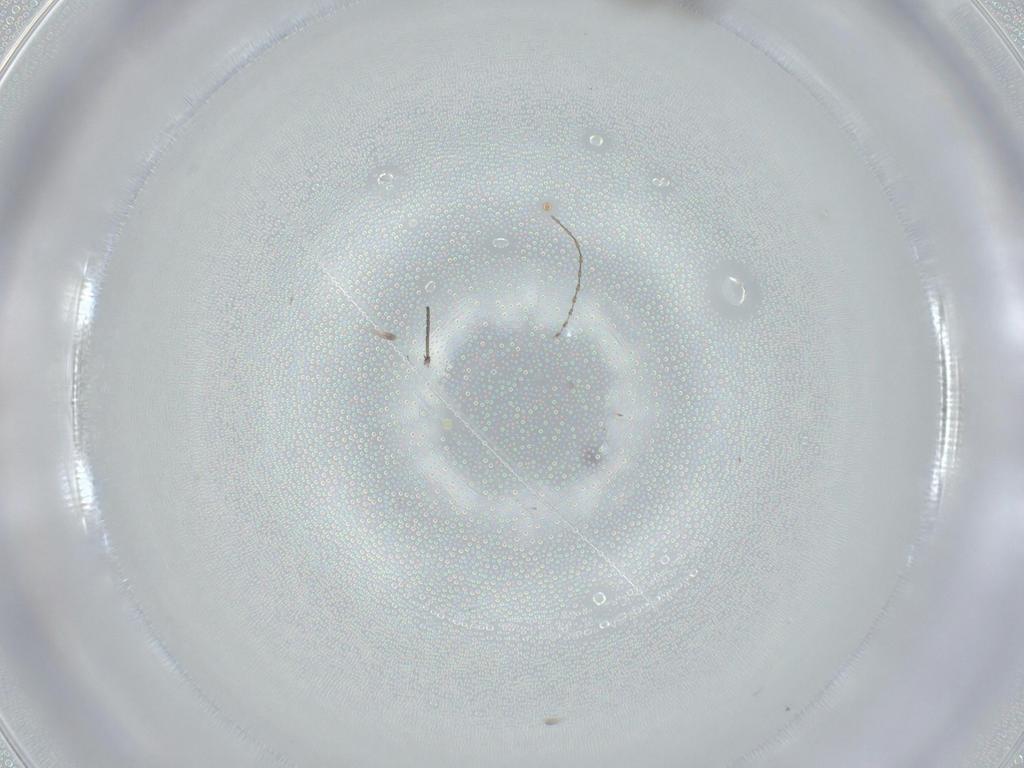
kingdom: Animalia
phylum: Arthropoda
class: Insecta
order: Diptera
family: Sciaridae
